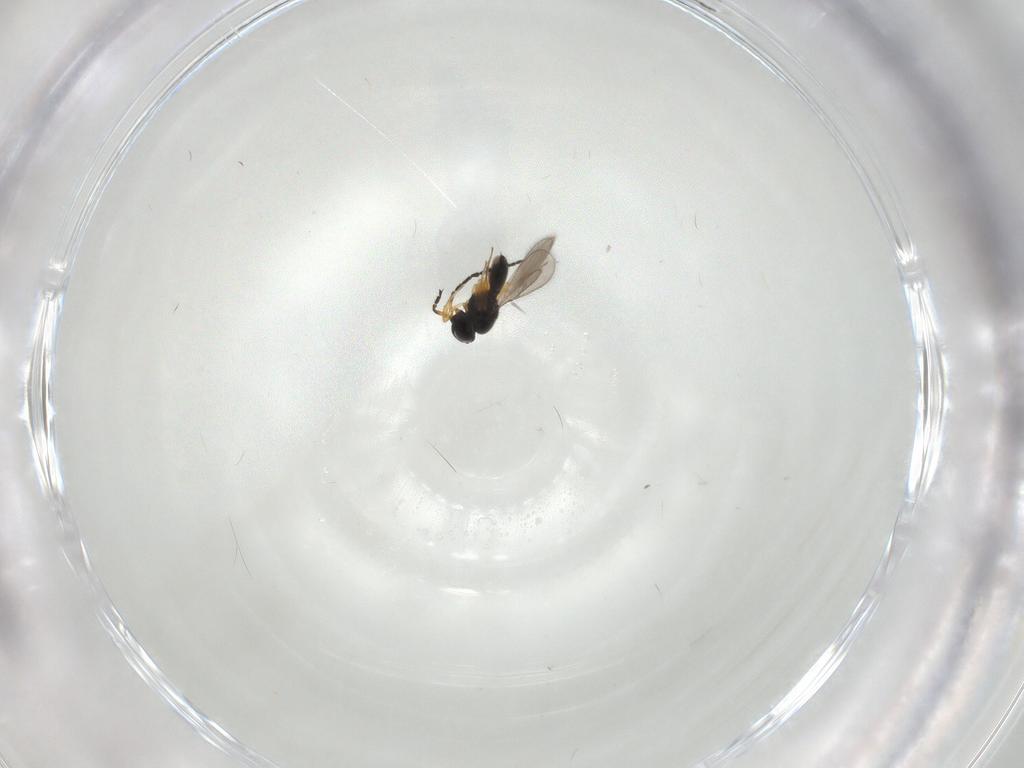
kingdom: Animalia
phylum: Arthropoda
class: Insecta
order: Hymenoptera
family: Scelionidae
